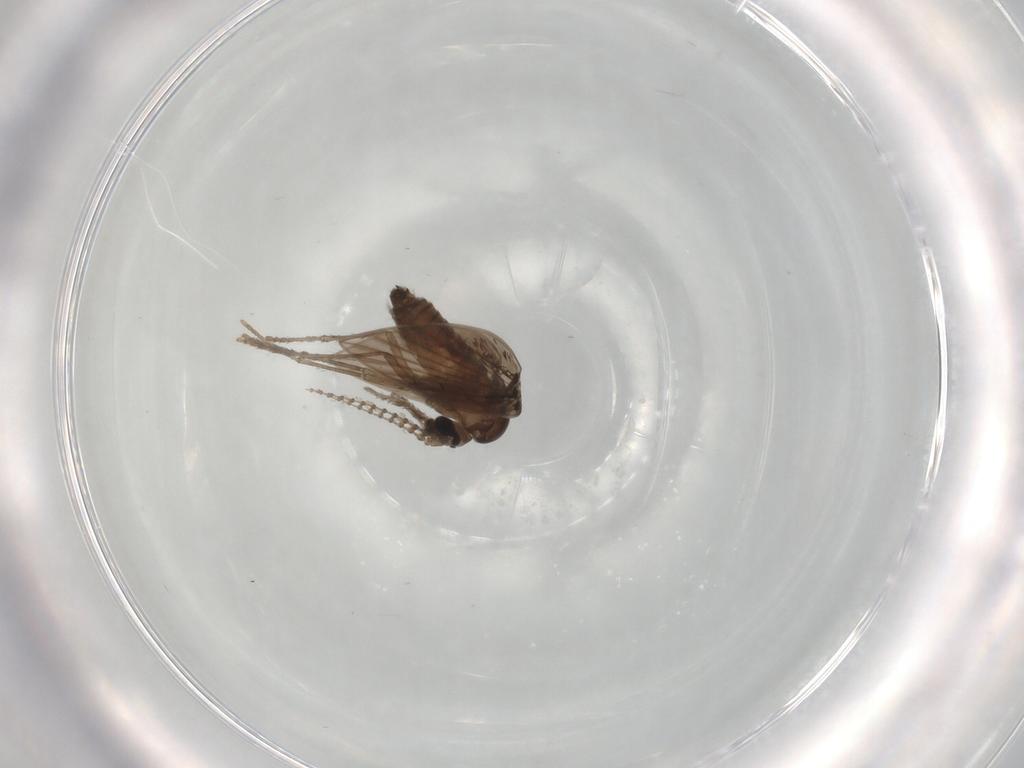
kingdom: Animalia
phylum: Arthropoda
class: Insecta
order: Diptera
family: Psychodidae
